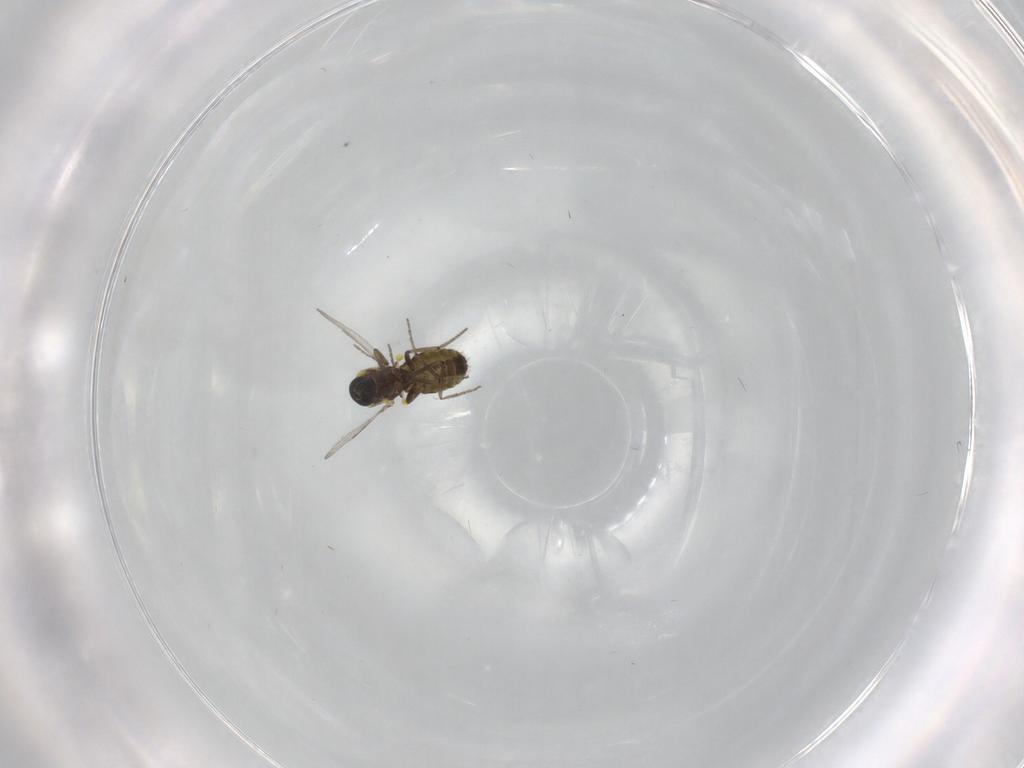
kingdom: Animalia
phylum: Arthropoda
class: Insecta
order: Diptera
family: Ceratopogonidae
